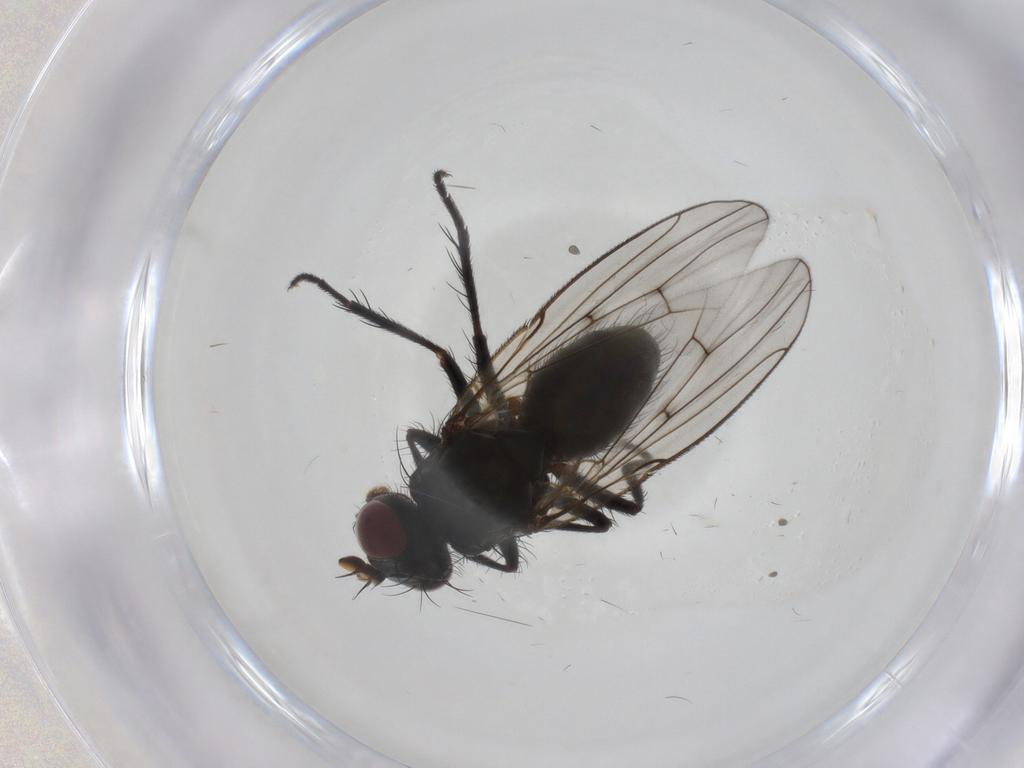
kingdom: Animalia
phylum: Arthropoda
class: Insecta
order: Diptera
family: Muscidae
